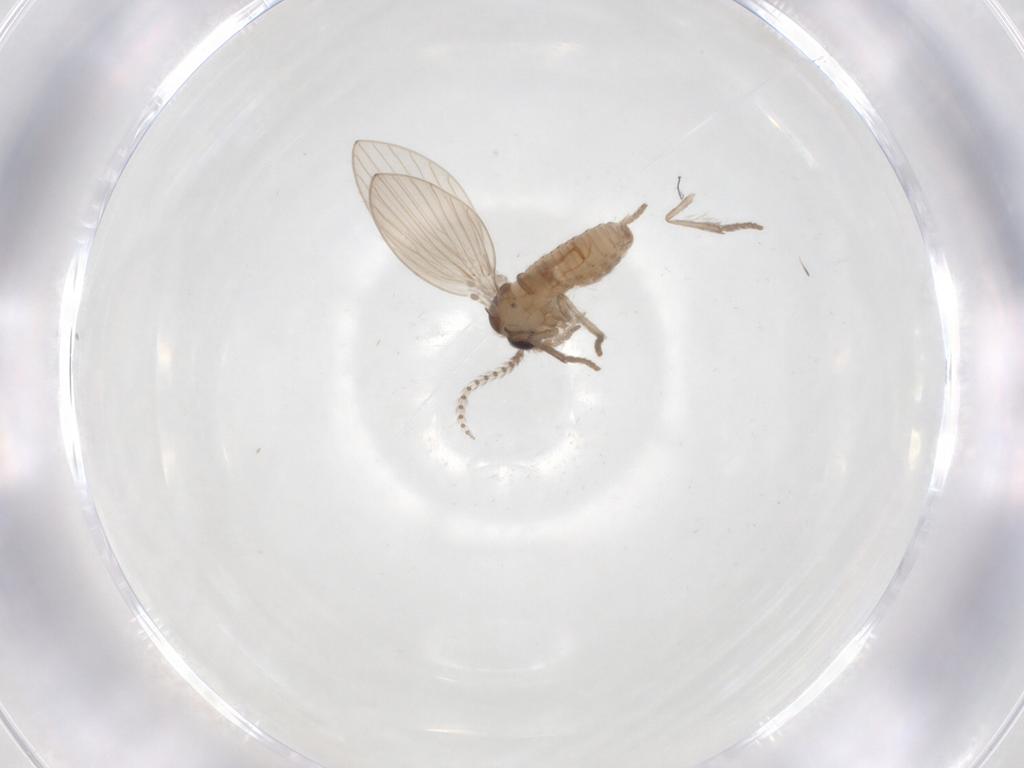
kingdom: Animalia
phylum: Arthropoda
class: Insecta
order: Diptera
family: Psychodidae
